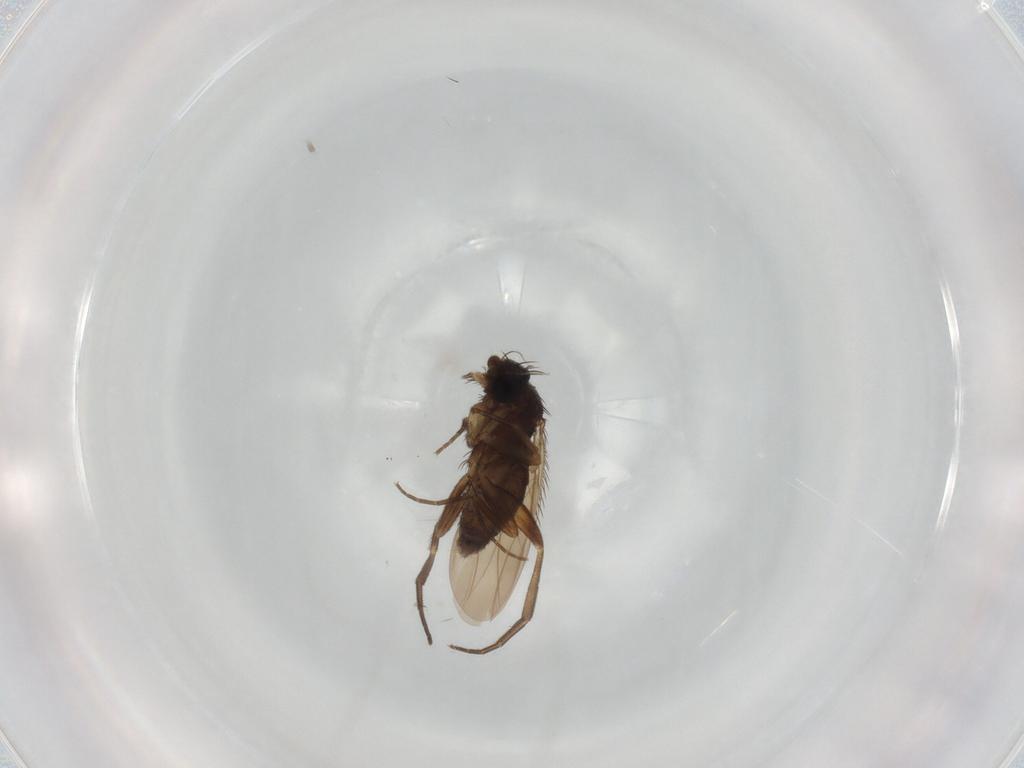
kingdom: Animalia
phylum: Arthropoda
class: Insecta
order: Diptera
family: Phoridae
